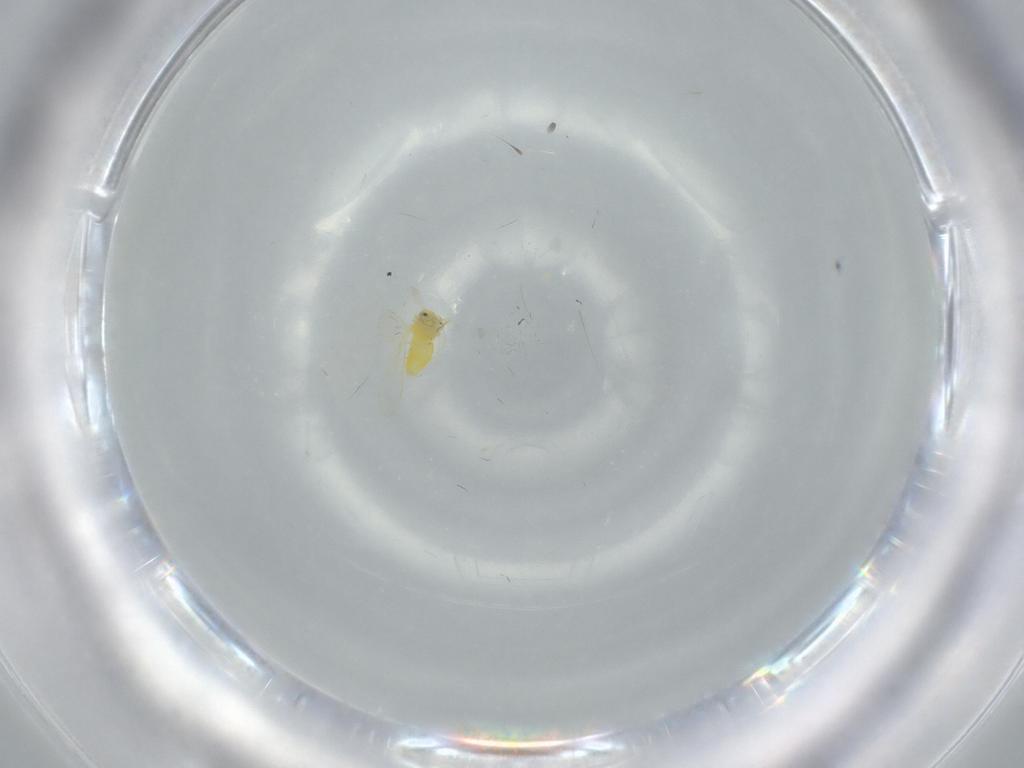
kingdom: Animalia
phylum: Arthropoda
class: Insecta
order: Hemiptera
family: Aleyrodidae
